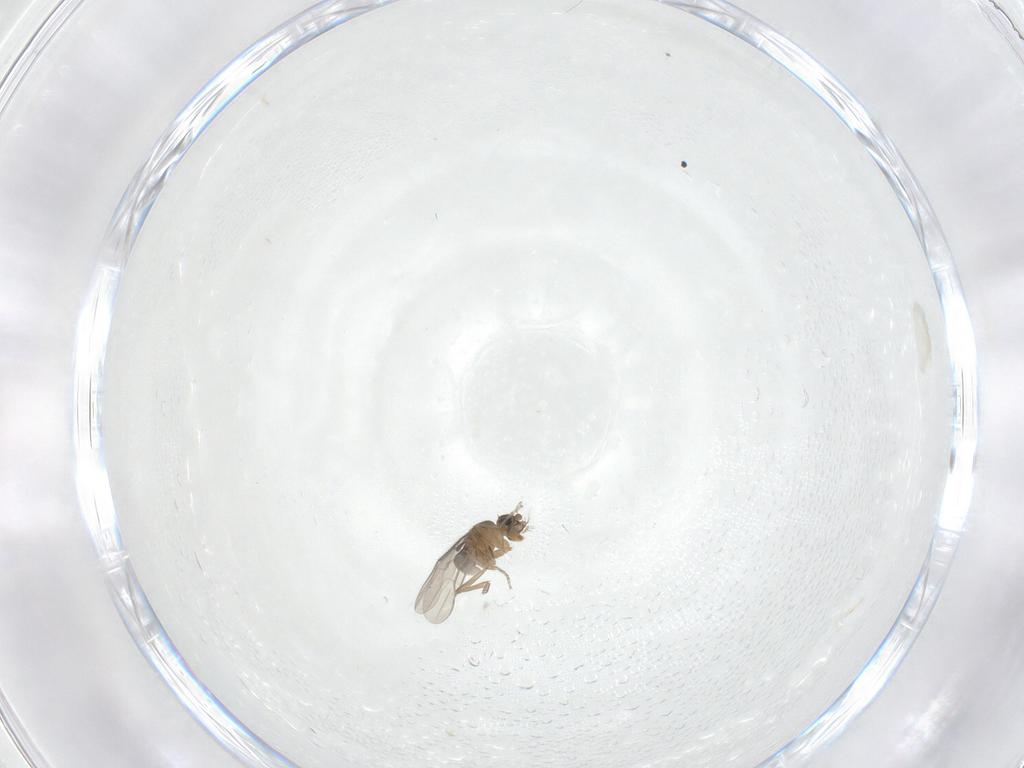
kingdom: Animalia
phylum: Arthropoda
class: Insecta
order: Diptera
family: Phoridae
